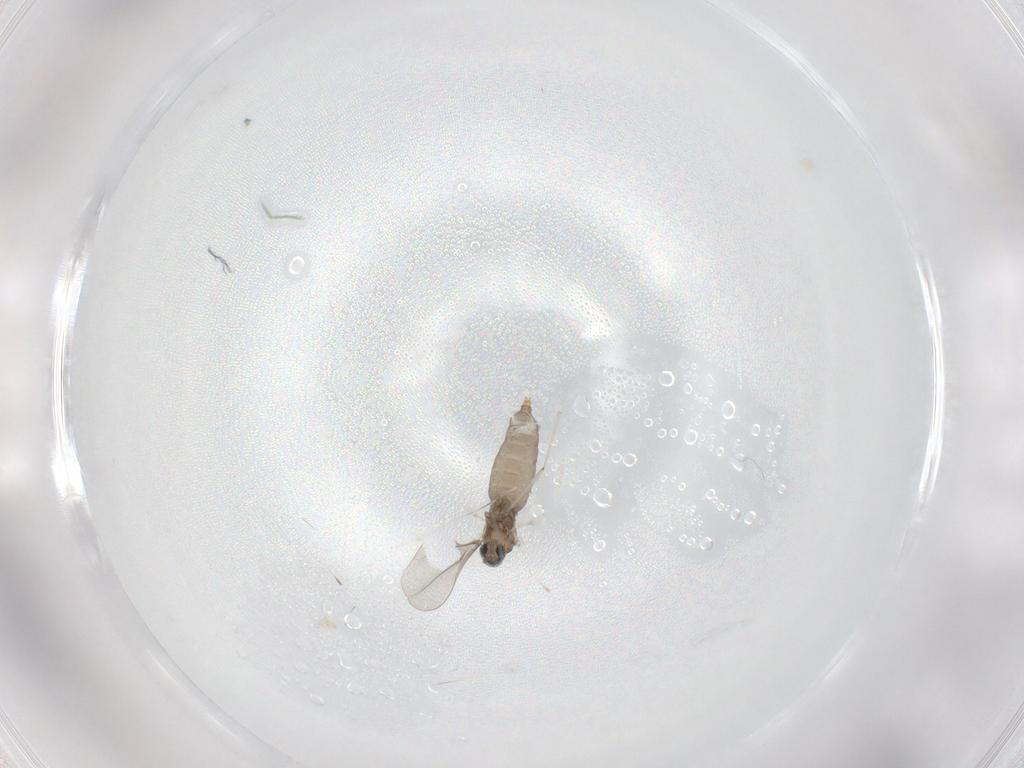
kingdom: Animalia
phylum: Arthropoda
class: Insecta
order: Diptera
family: Cecidomyiidae
